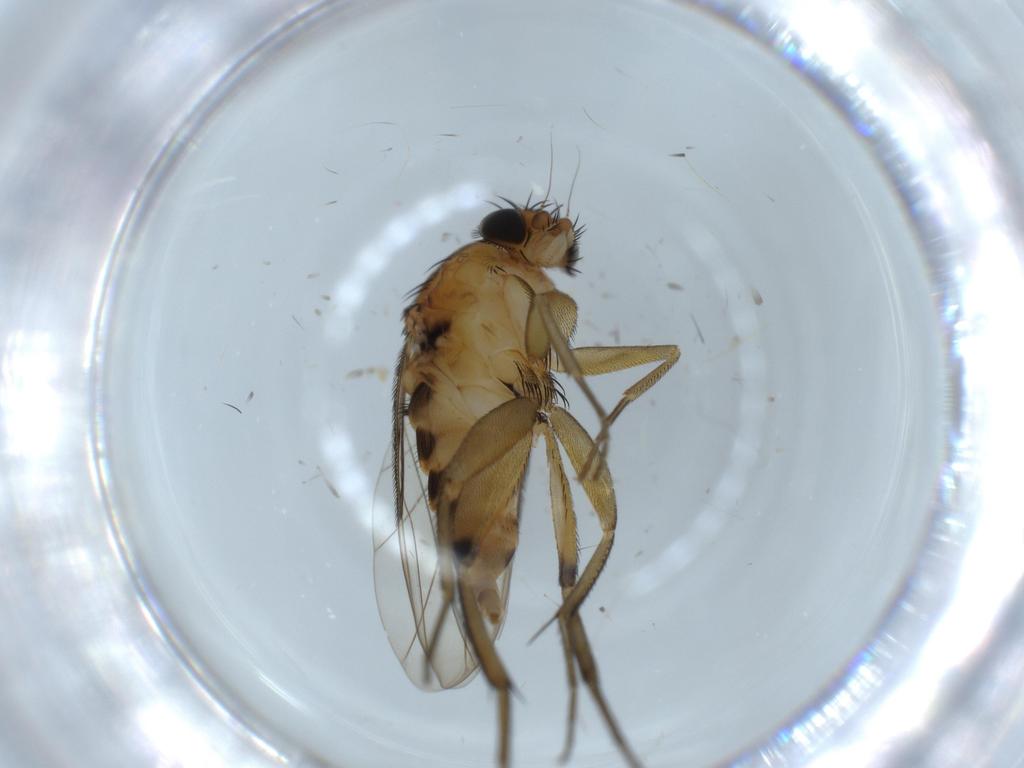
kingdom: Animalia
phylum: Arthropoda
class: Insecta
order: Diptera
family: Phoridae
